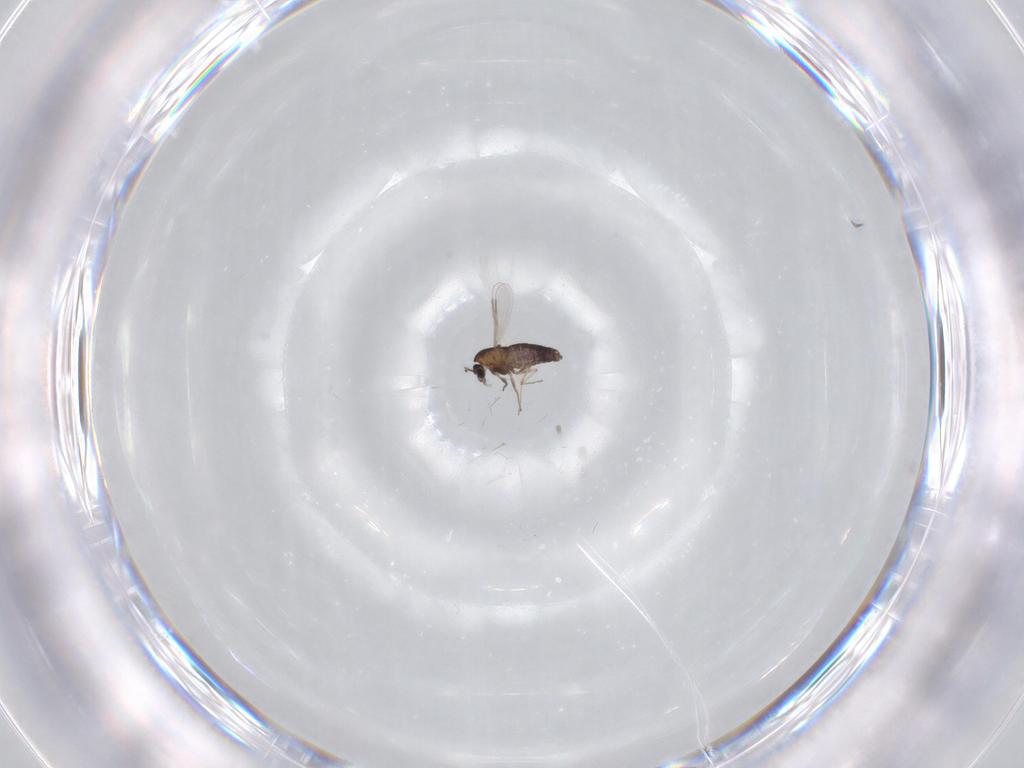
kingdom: Animalia
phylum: Arthropoda
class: Insecta
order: Diptera
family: Chironomidae
